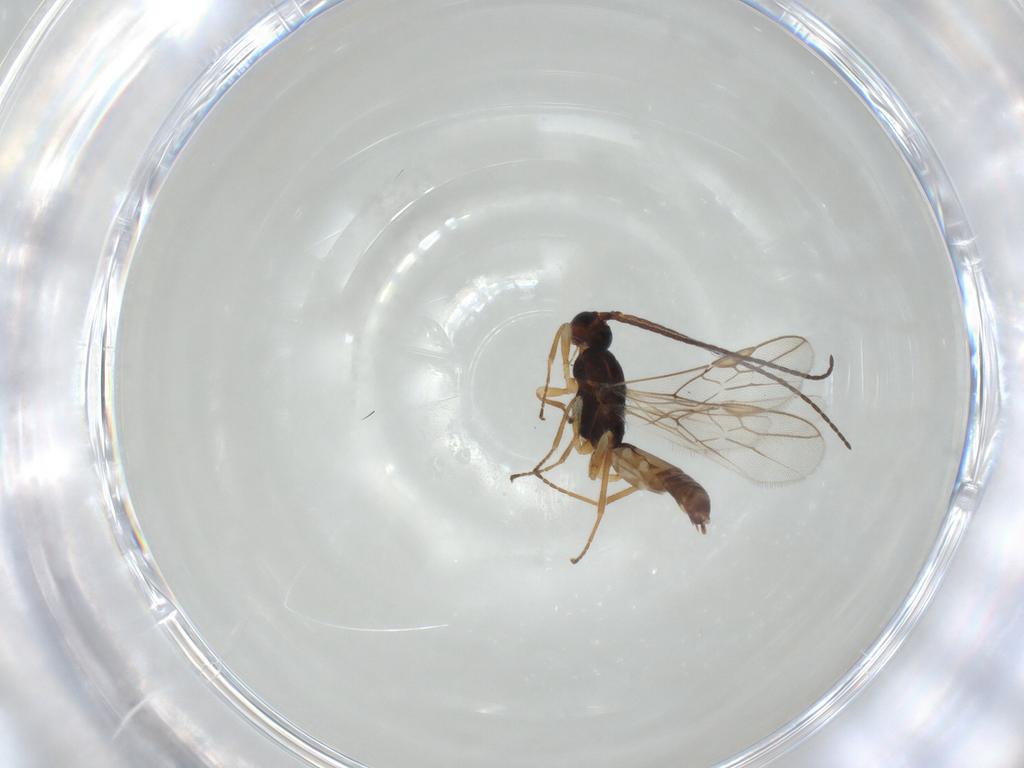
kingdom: Animalia
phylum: Arthropoda
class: Insecta
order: Hymenoptera
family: Braconidae
